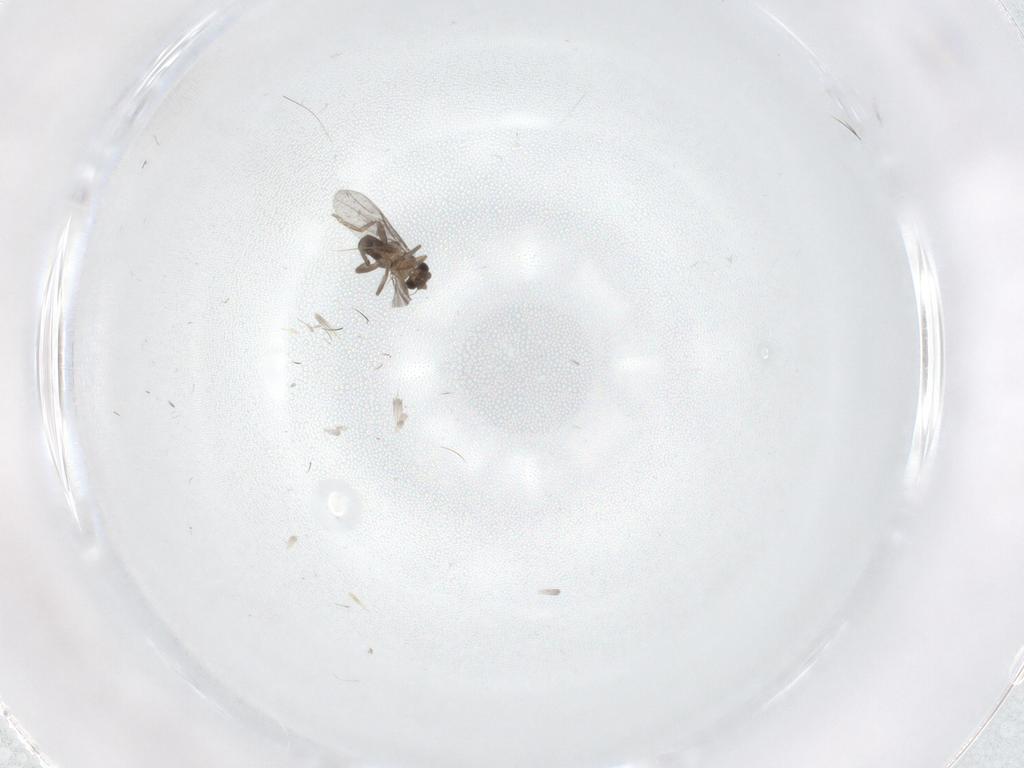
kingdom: Animalia
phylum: Arthropoda
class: Insecta
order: Diptera
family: Cecidomyiidae
